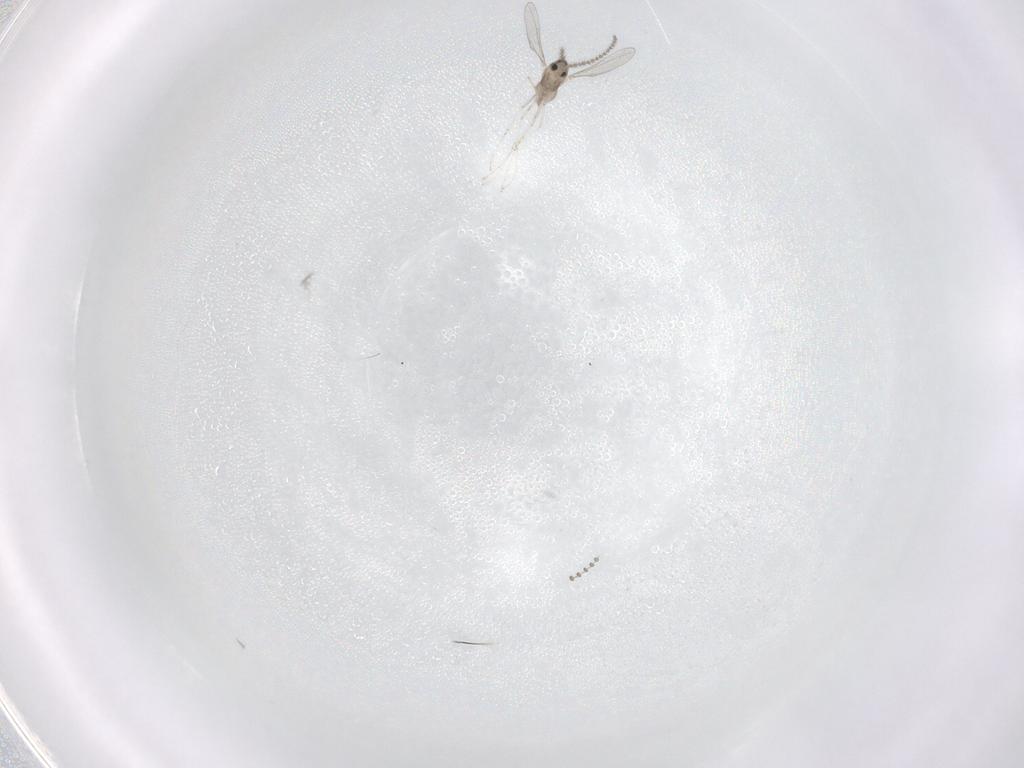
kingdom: Animalia
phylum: Arthropoda
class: Insecta
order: Diptera
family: Cecidomyiidae
